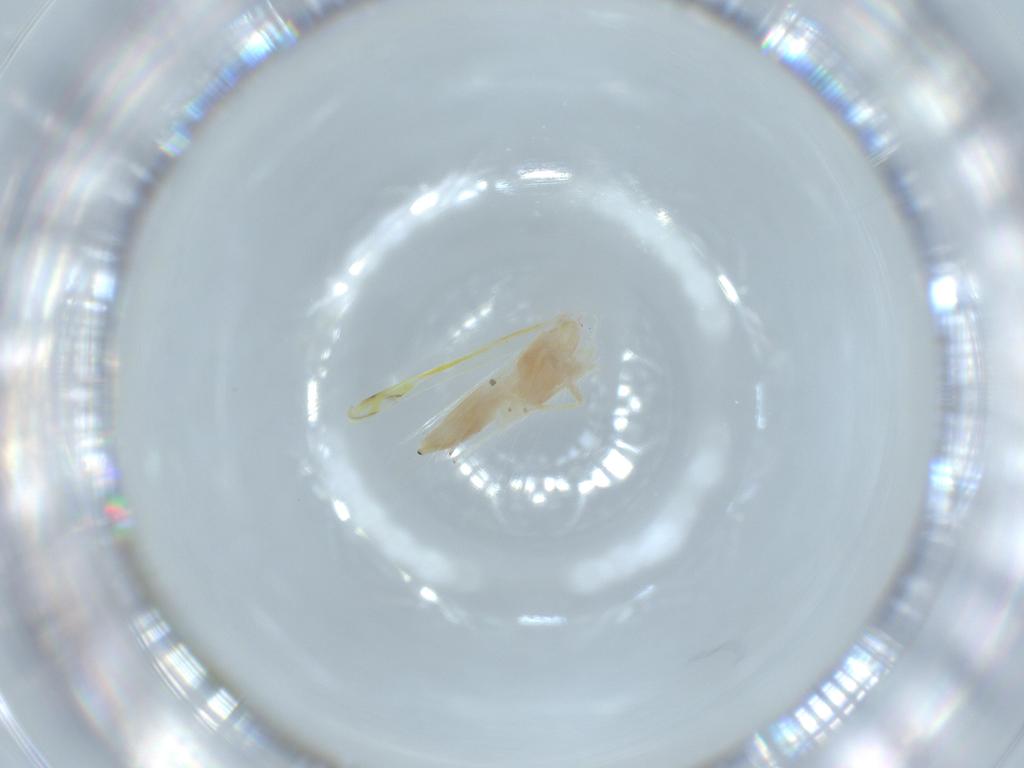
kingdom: Animalia
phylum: Arthropoda
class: Insecta
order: Hemiptera
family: Cicadellidae
